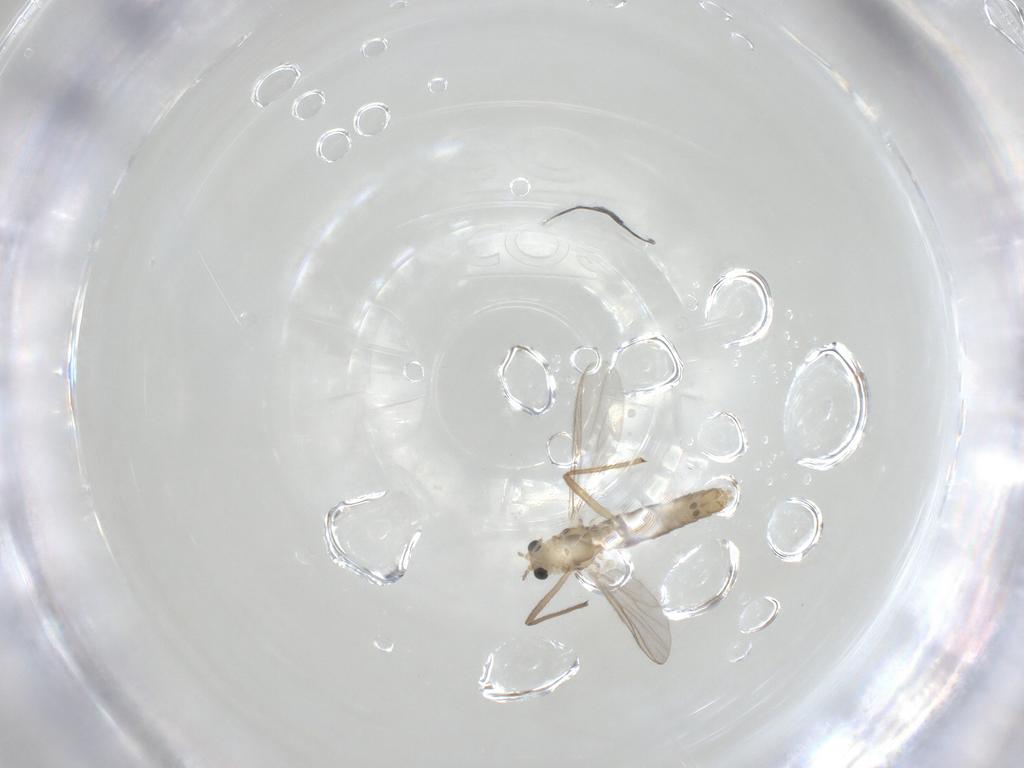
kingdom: Animalia
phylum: Arthropoda
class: Insecta
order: Diptera
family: Chironomidae
